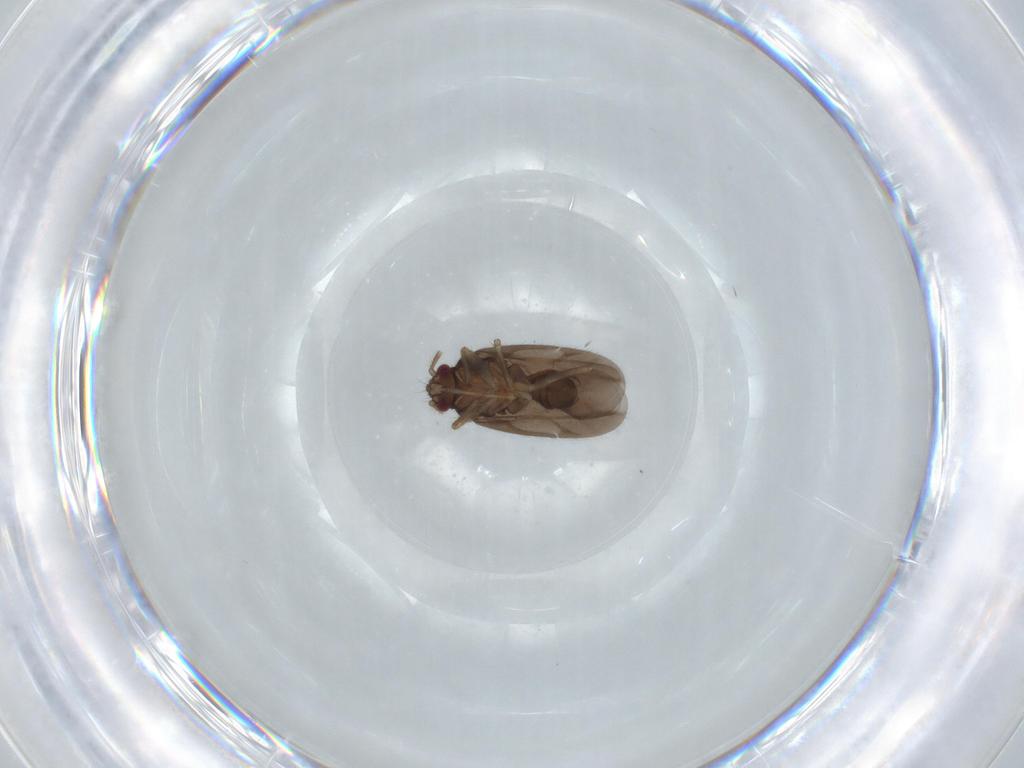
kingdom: Animalia
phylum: Arthropoda
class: Insecta
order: Hemiptera
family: Ceratocombidae
